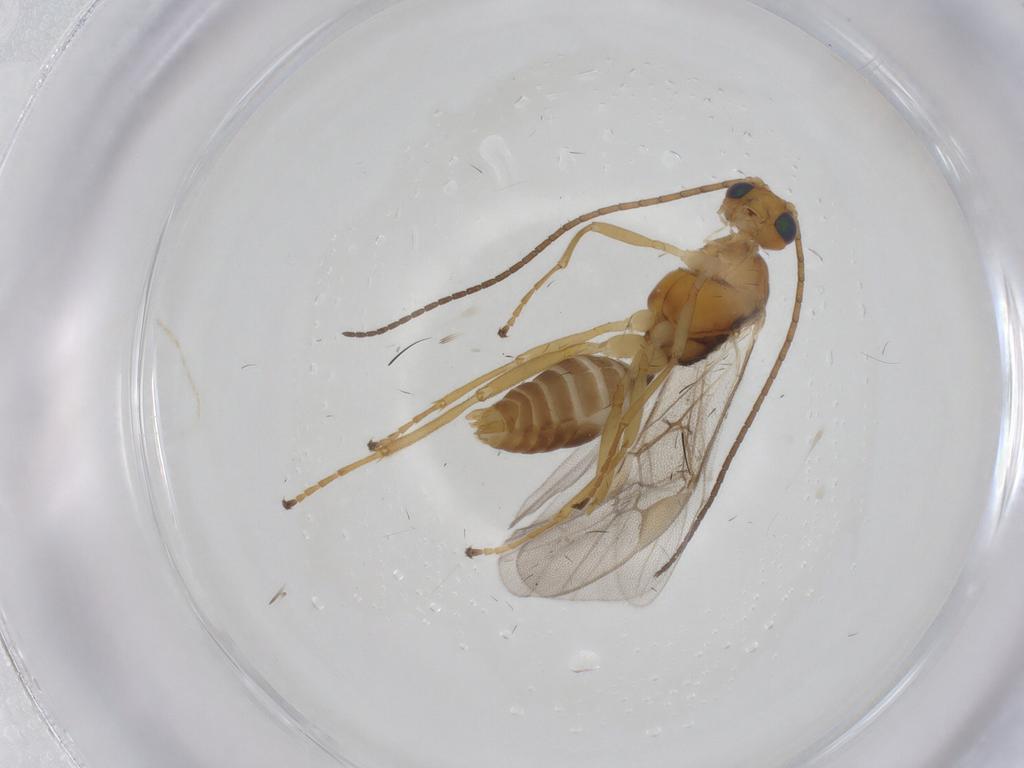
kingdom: Animalia
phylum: Arthropoda
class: Insecta
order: Hymenoptera
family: Braconidae
